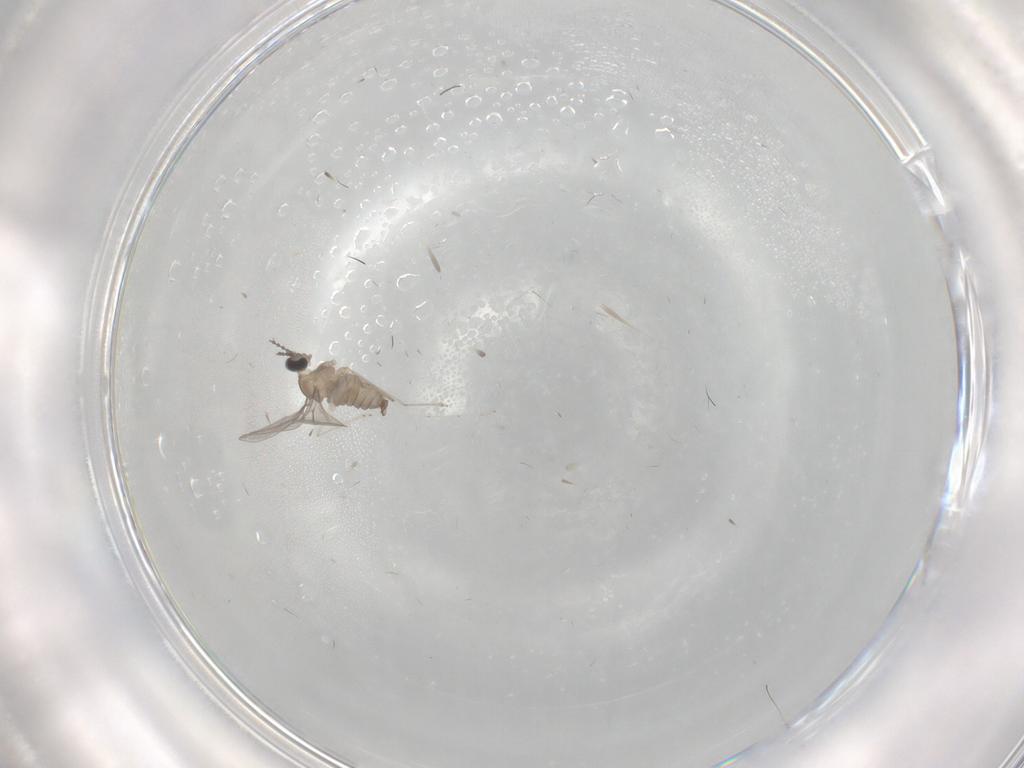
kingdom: Animalia
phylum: Arthropoda
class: Insecta
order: Diptera
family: Cecidomyiidae
